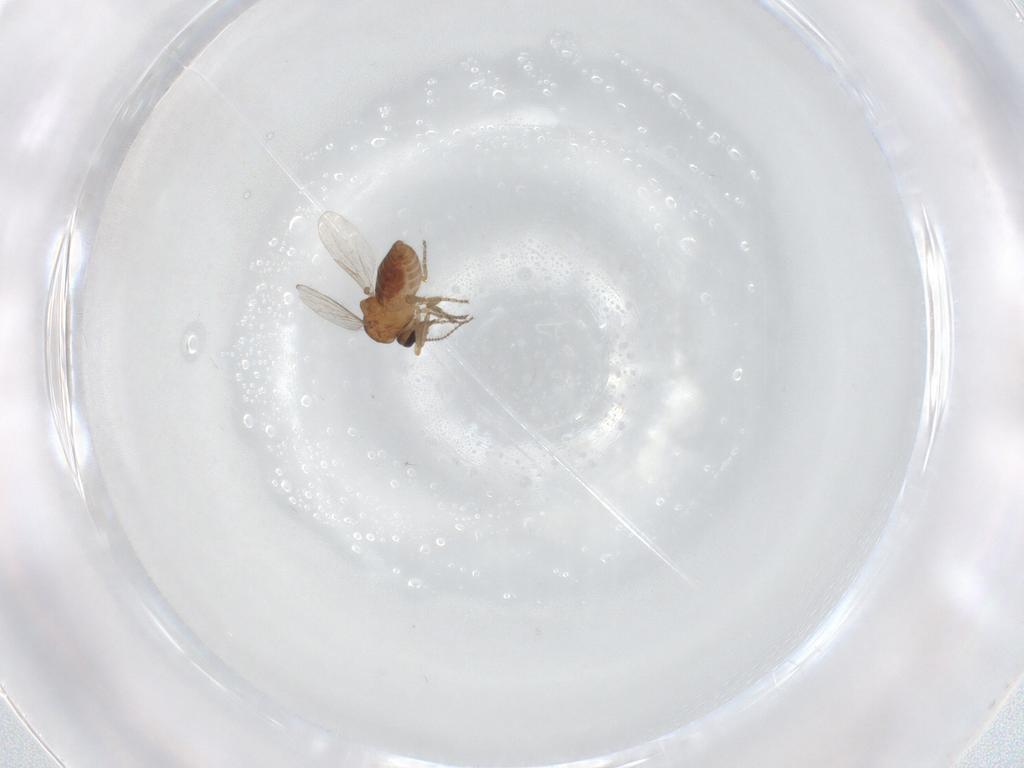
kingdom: Animalia
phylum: Arthropoda
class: Insecta
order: Diptera
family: Ceratopogonidae
